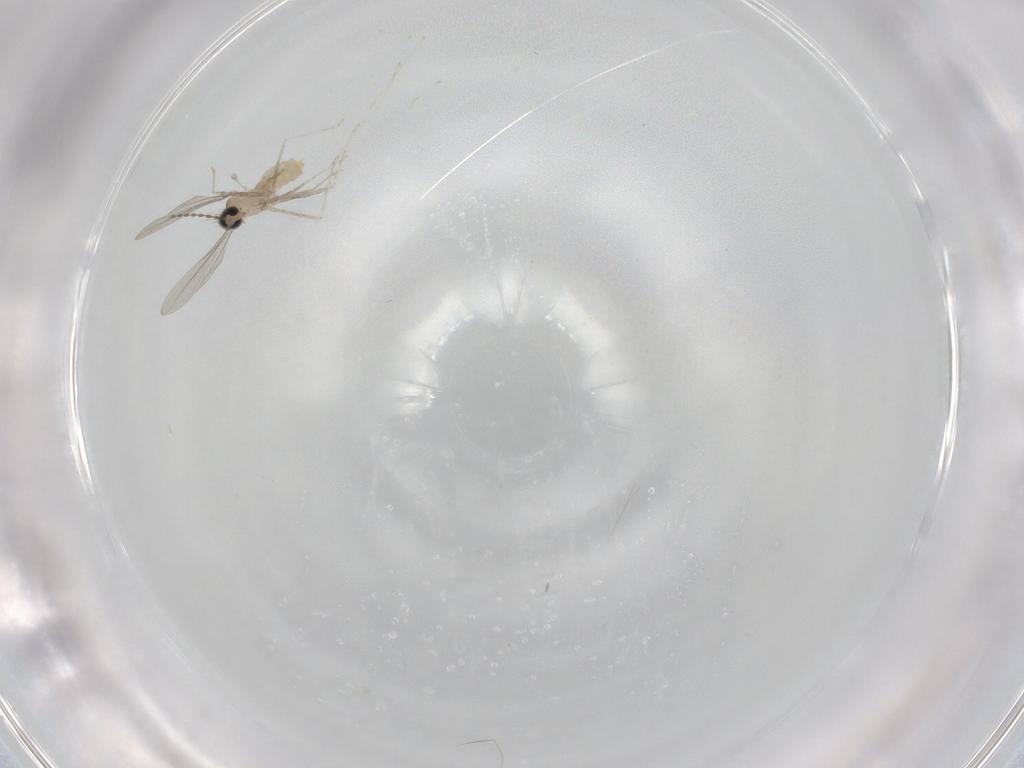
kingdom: Animalia
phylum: Arthropoda
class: Insecta
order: Diptera
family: Cecidomyiidae
